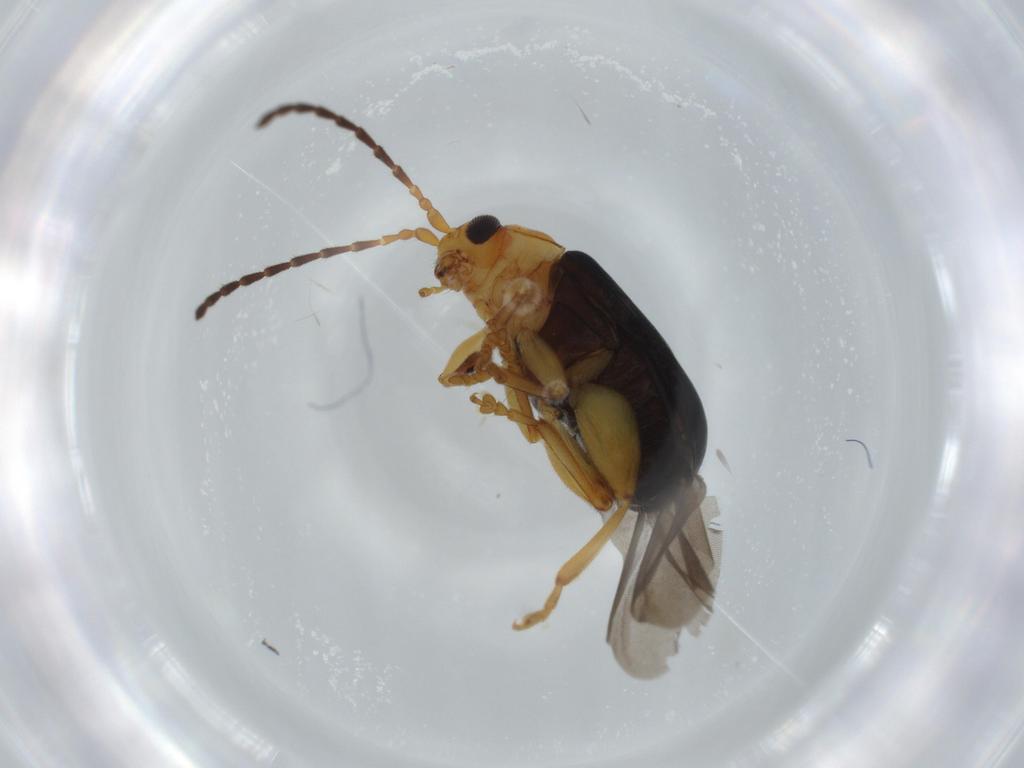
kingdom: Animalia
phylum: Arthropoda
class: Insecta
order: Coleoptera
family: Chrysomelidae
